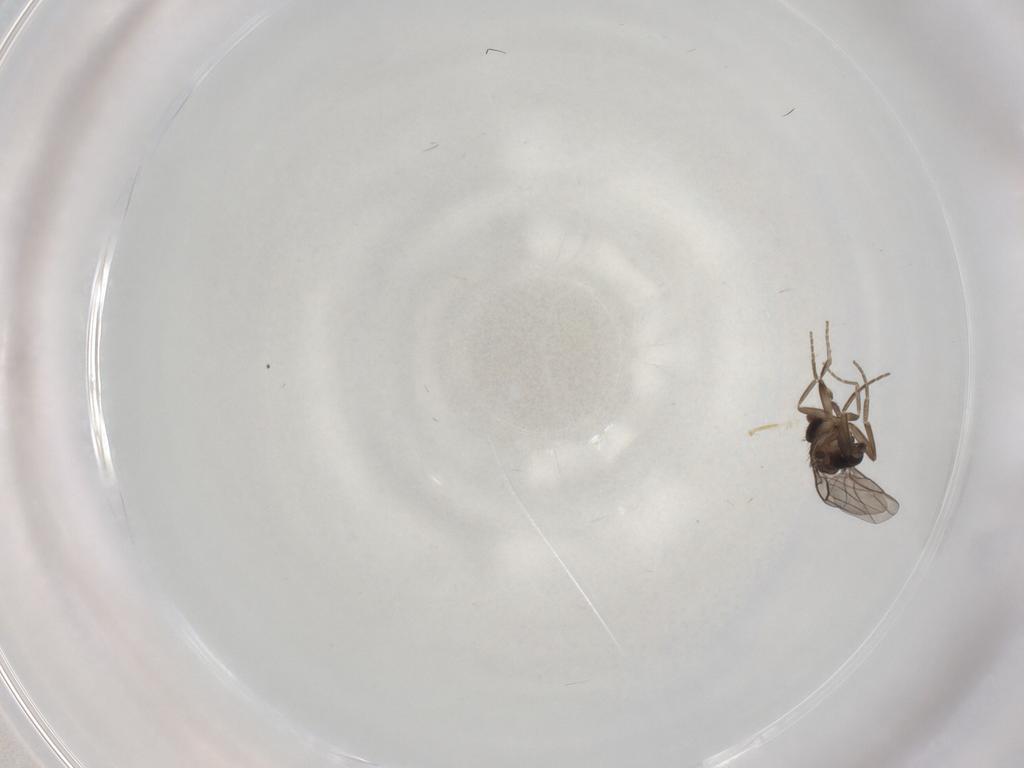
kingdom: Animalia
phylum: Arthropoda
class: Insecta
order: Diptera
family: Phoridae
